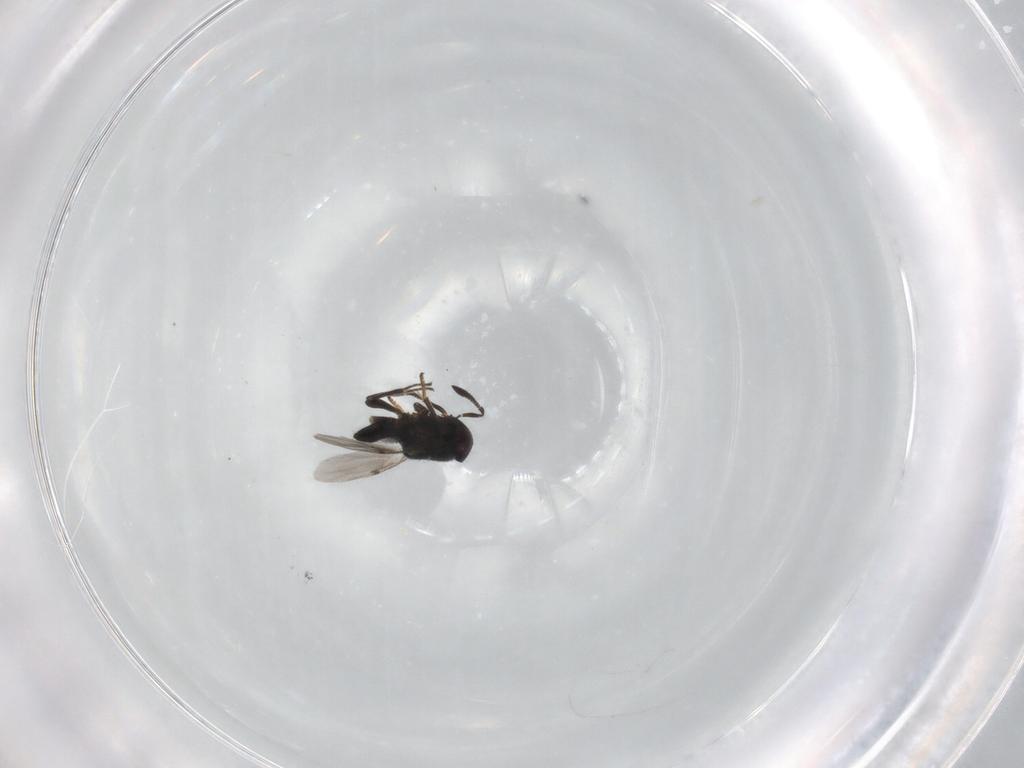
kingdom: Animalia
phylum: Arthropoda
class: Insecta
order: Hymenoptera
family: Encyrtidae
